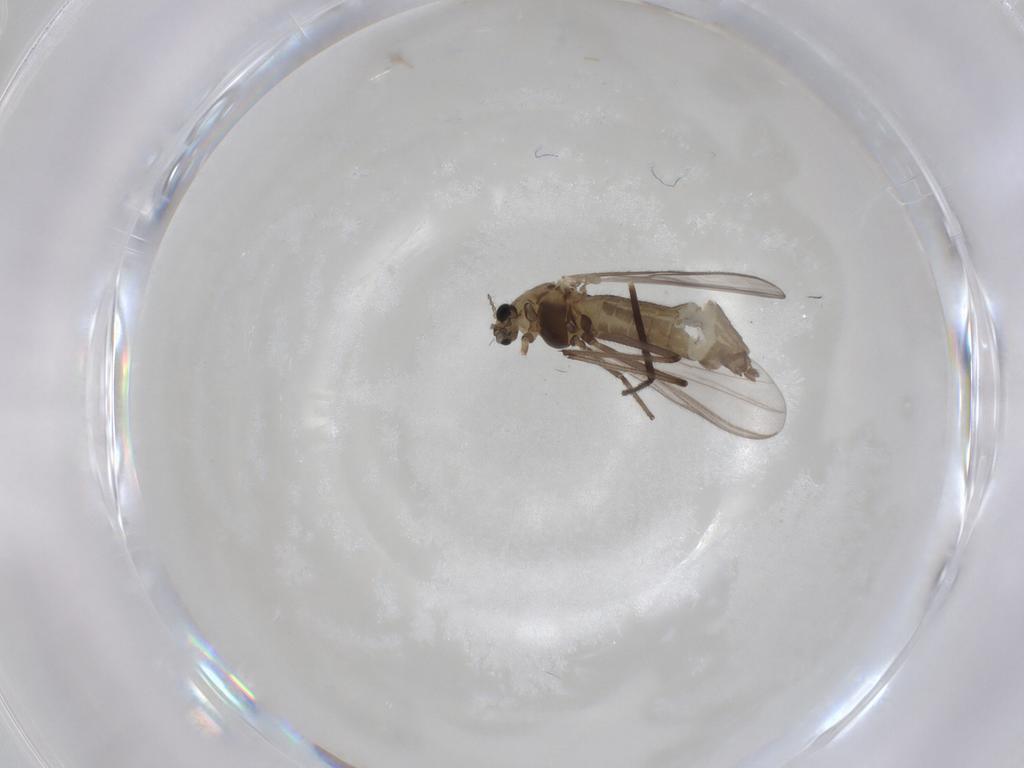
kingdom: Animalia
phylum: Arthropoda
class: Insecta
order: Diptera
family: Chironomidae
